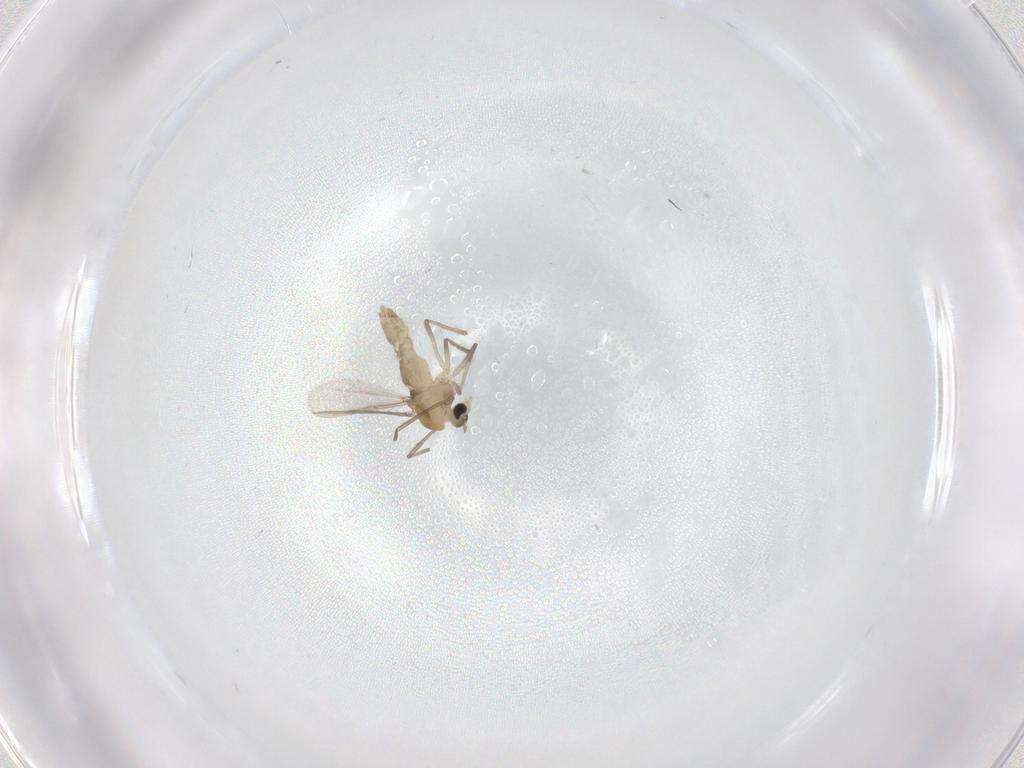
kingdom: Animalia
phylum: Arthropoda
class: Insecta
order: Diptera
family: Chironomidae
